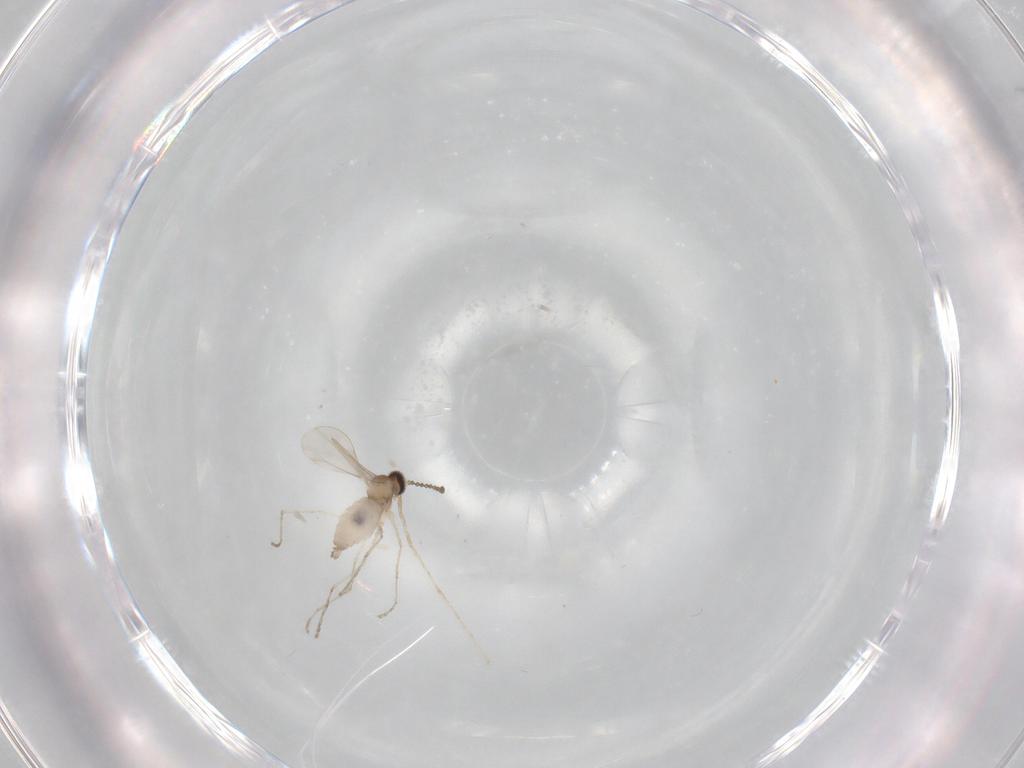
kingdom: Animalia
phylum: Arthropoda
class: Insecta
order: Diptera
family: Cecidomyiidae
